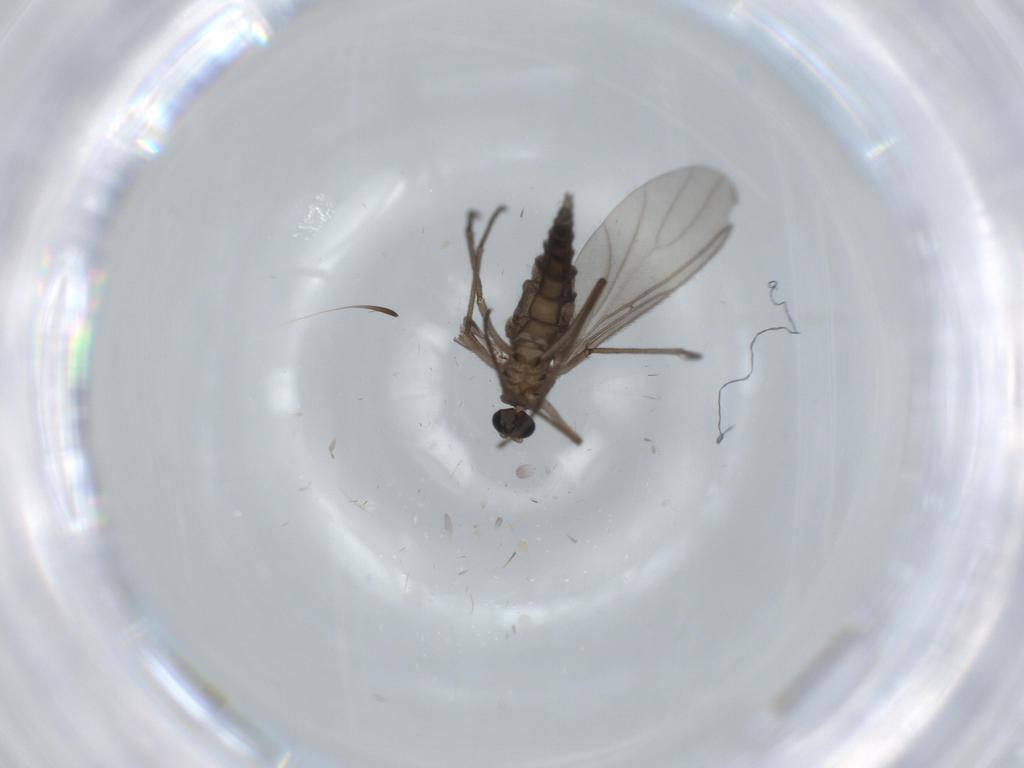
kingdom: Animalia
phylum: Arthropoda
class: Insecta
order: Diptera
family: Sciaridae
